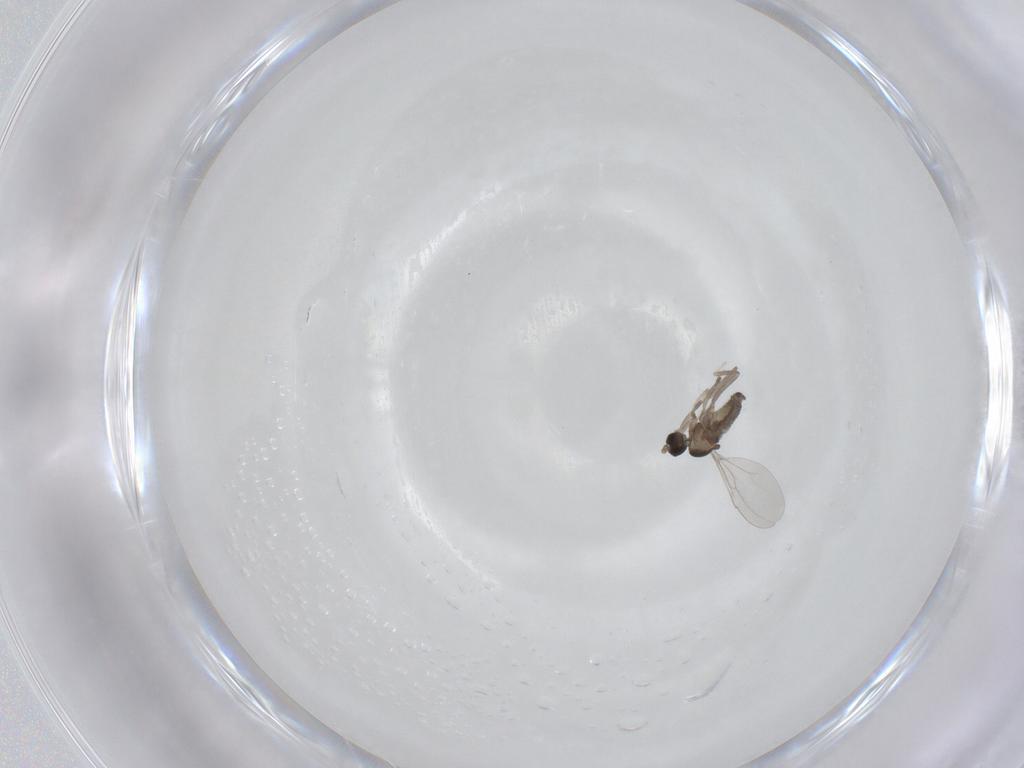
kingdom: Animalia
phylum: Arthropoda
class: Insecta
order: Diptera
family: Cecidomyiidae
